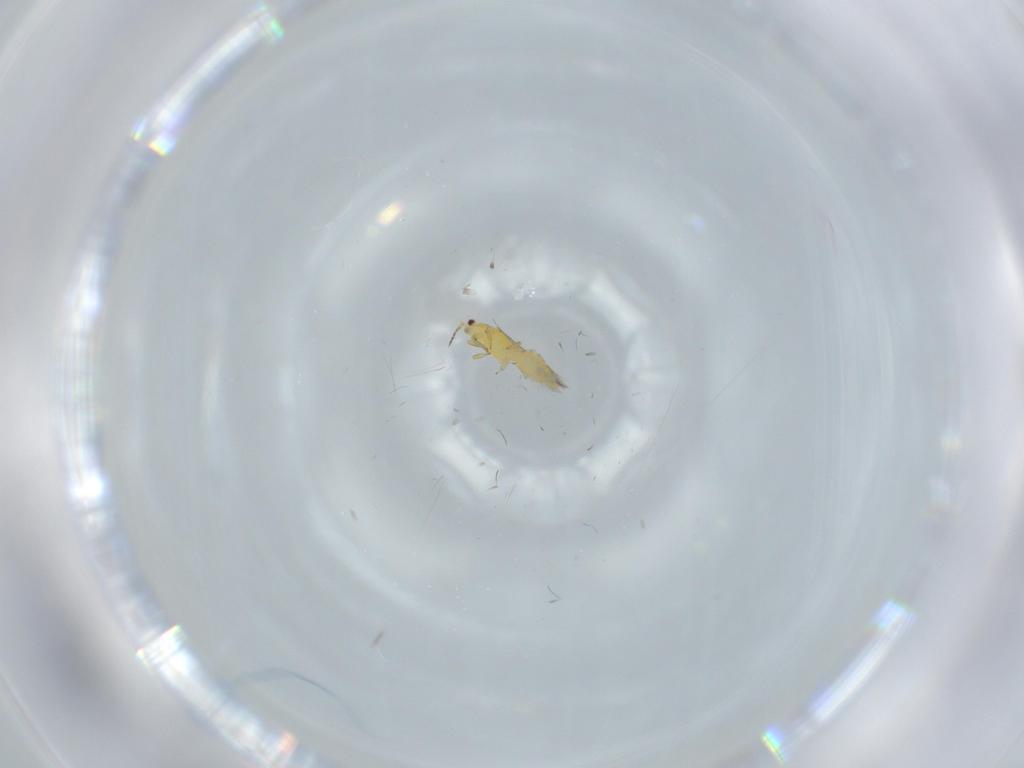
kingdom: Animalia
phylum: Arthropoda
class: Insecta
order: Thysanoptera
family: Thripidae
